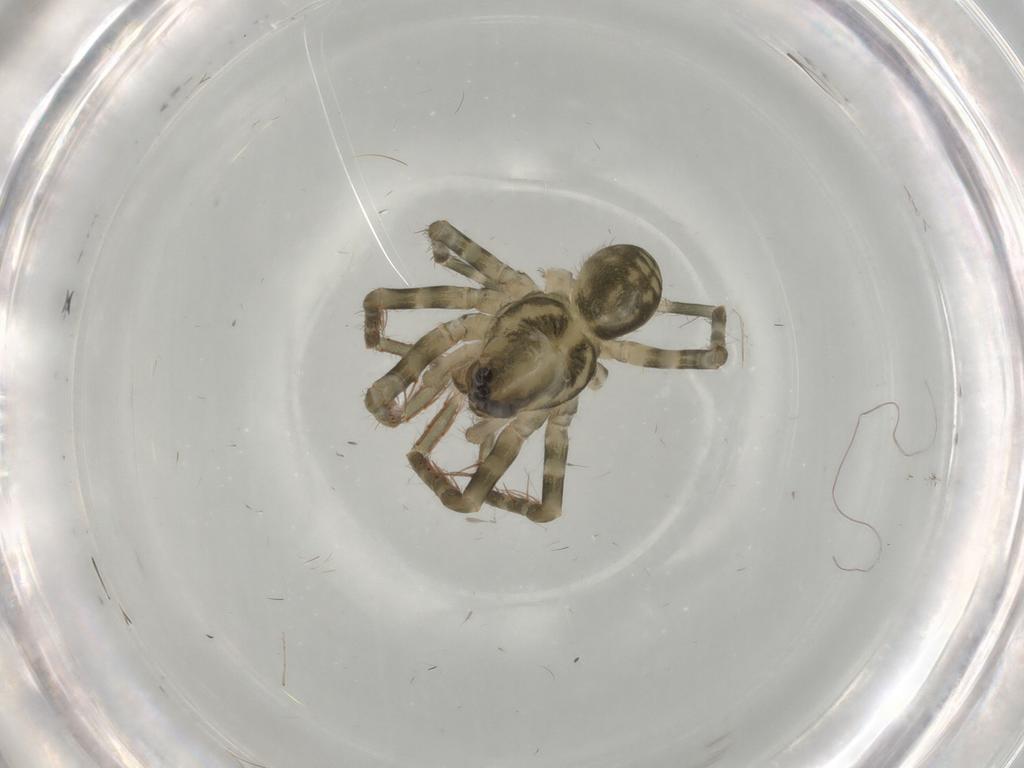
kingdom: Animalia
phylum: Arthropoda
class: Arachnida
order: Araneae
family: Ctenidae
